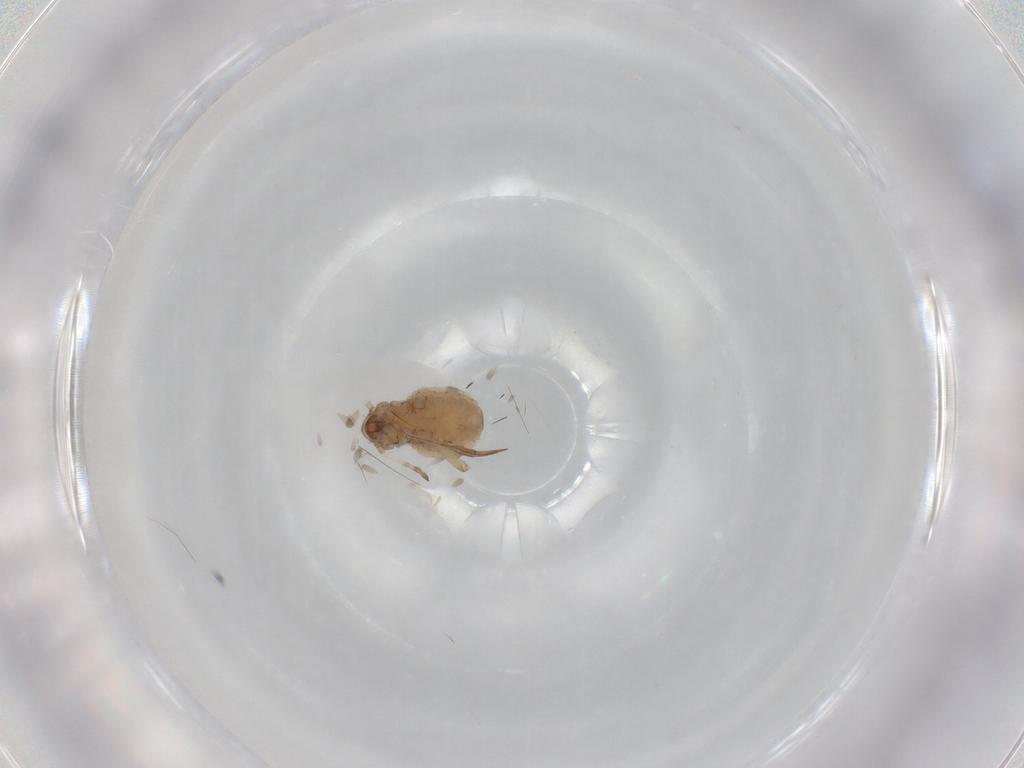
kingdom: Animalia
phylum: Arthropoda
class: Insecta
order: Hemiptera
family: Aphididae
